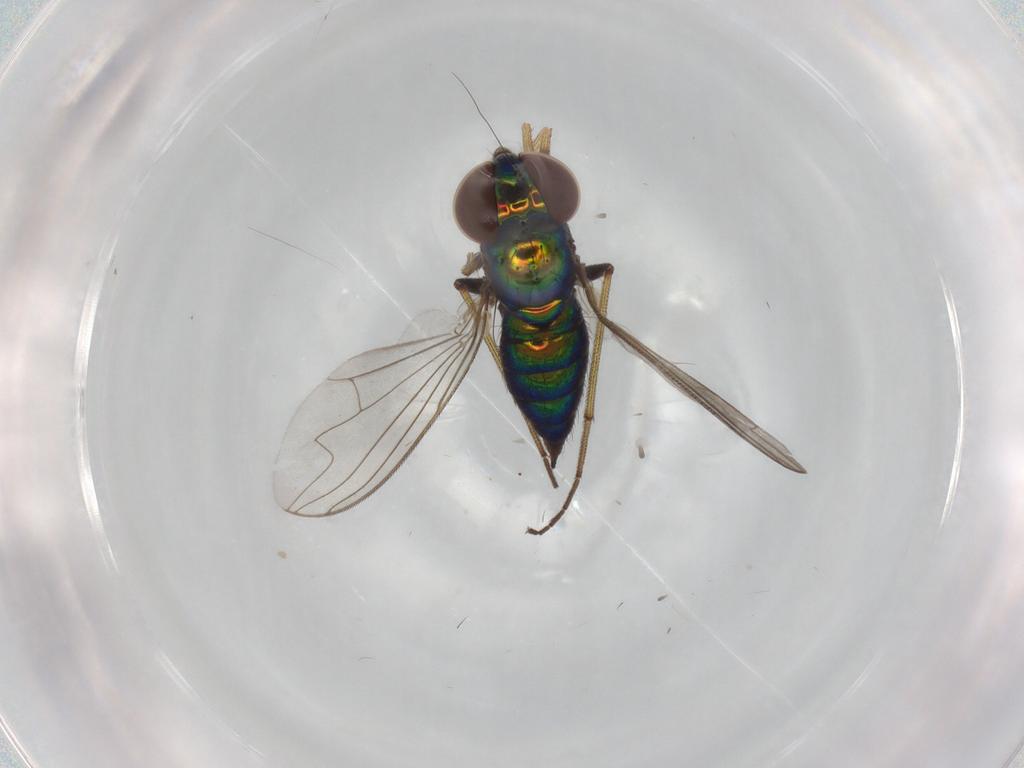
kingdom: Animalia
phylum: Arthropoda
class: Insecta
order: Diptera
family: Dolichopodidae
